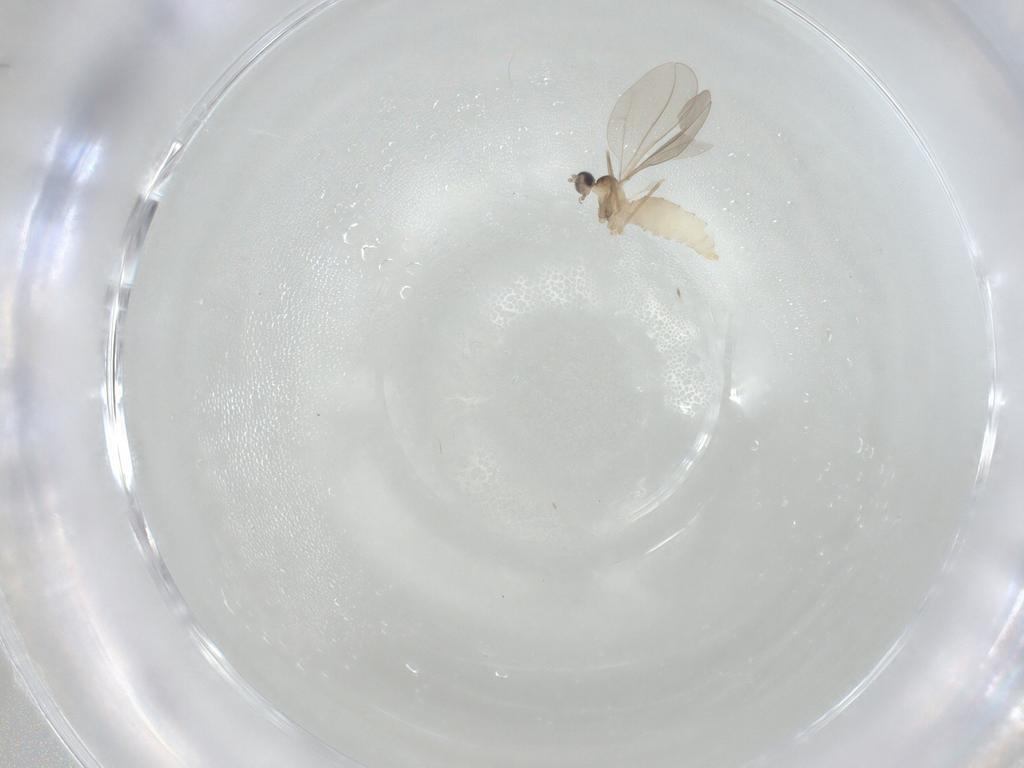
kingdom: Animalia
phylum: Arthropoda
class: Insecta
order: Diptera
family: Cecidomyiidae
